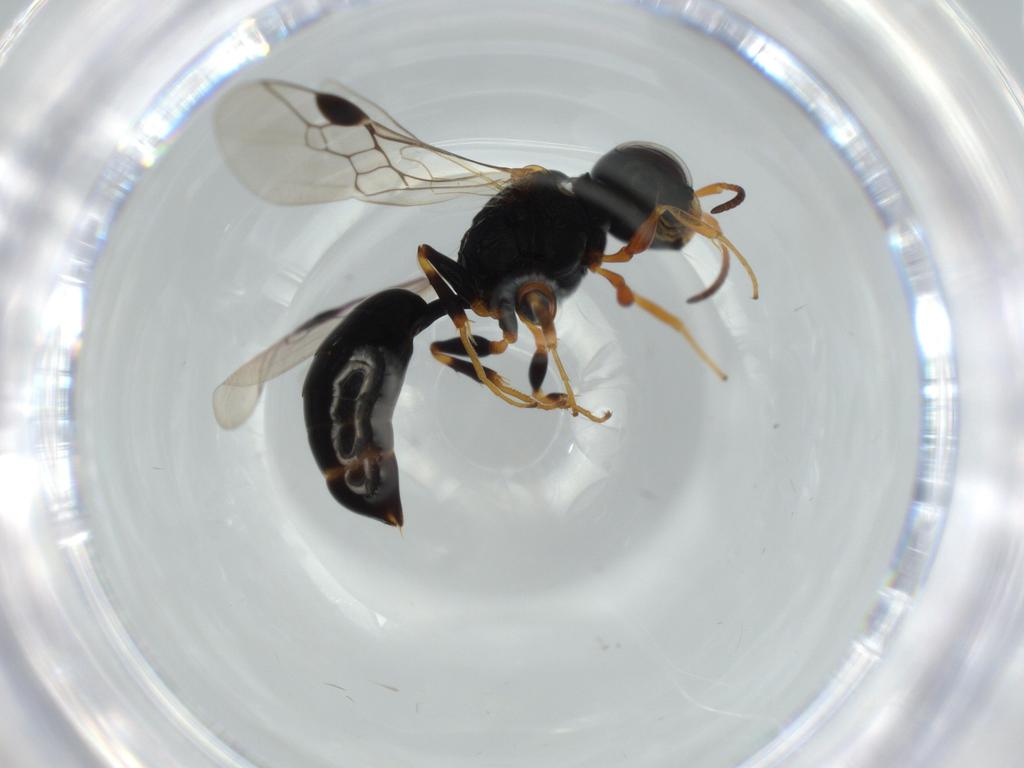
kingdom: Animalia
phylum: Arthropoda
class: Insecta
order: Hymenoptera
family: Pemphredonidae
